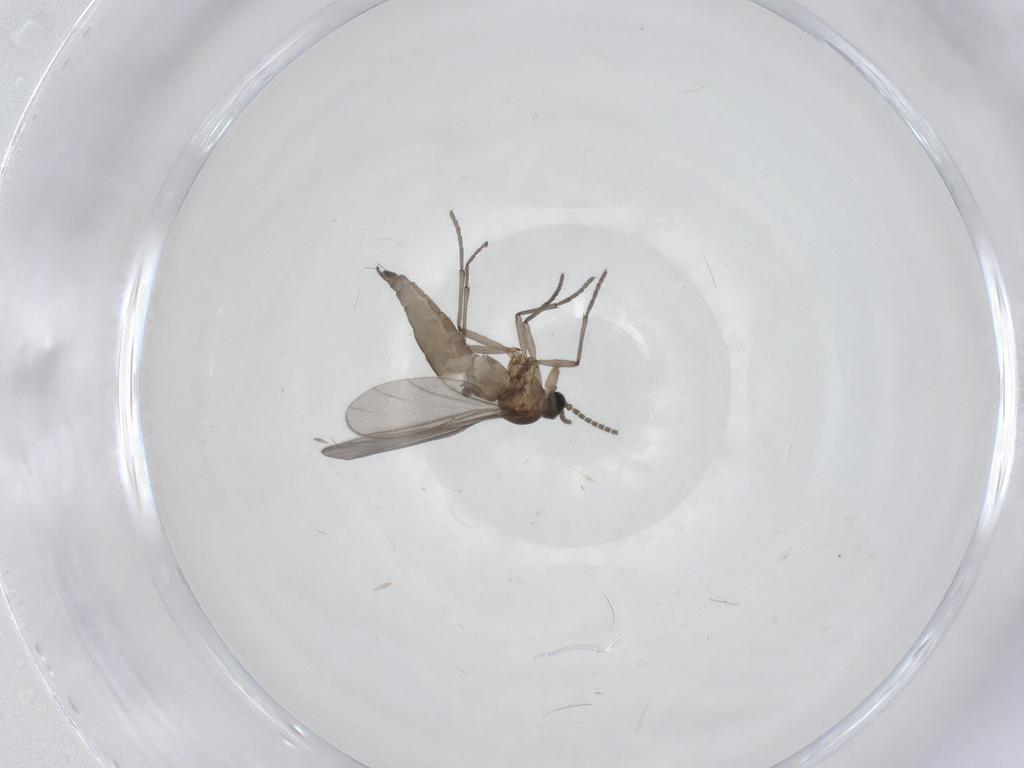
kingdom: Animalia
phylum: Arthropoda
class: Insecta
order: Diptera
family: Sciaridae
